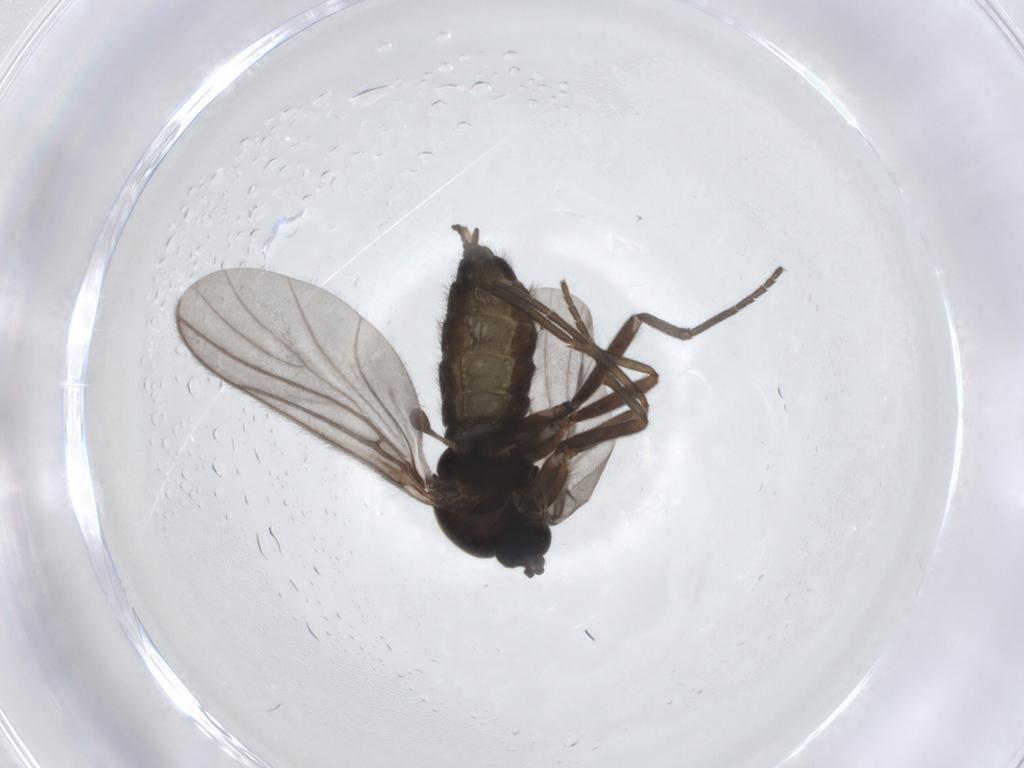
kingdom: Animalia
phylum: Arthropoda
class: Insecta
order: Diptera
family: Sciaridae
